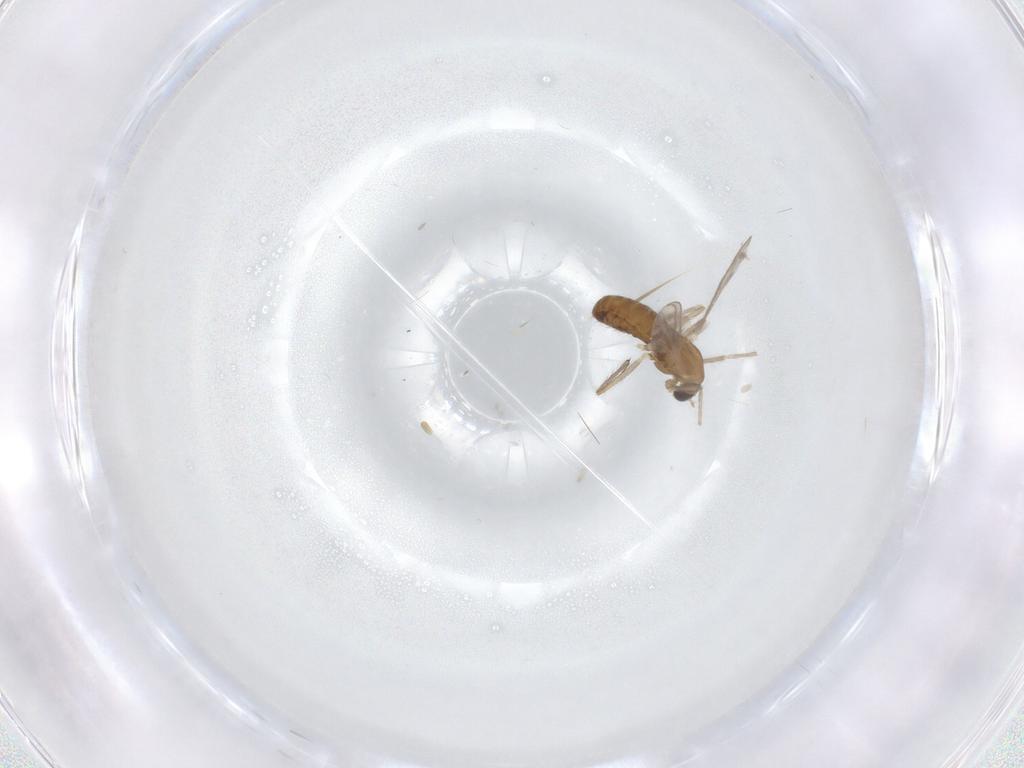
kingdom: Animalia
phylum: Arthropoda
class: Insecta
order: Diptera
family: Chironomidae
